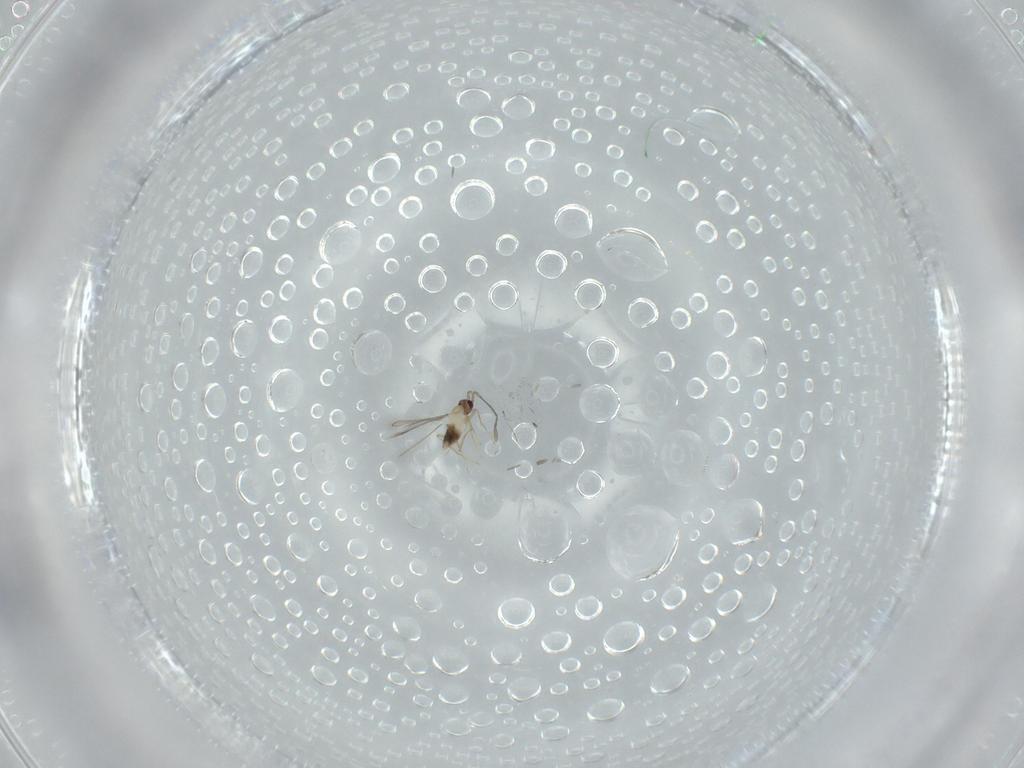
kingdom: Animalia
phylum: Arthropoda
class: Insecta
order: Hymenoptera
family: Mymaridae
